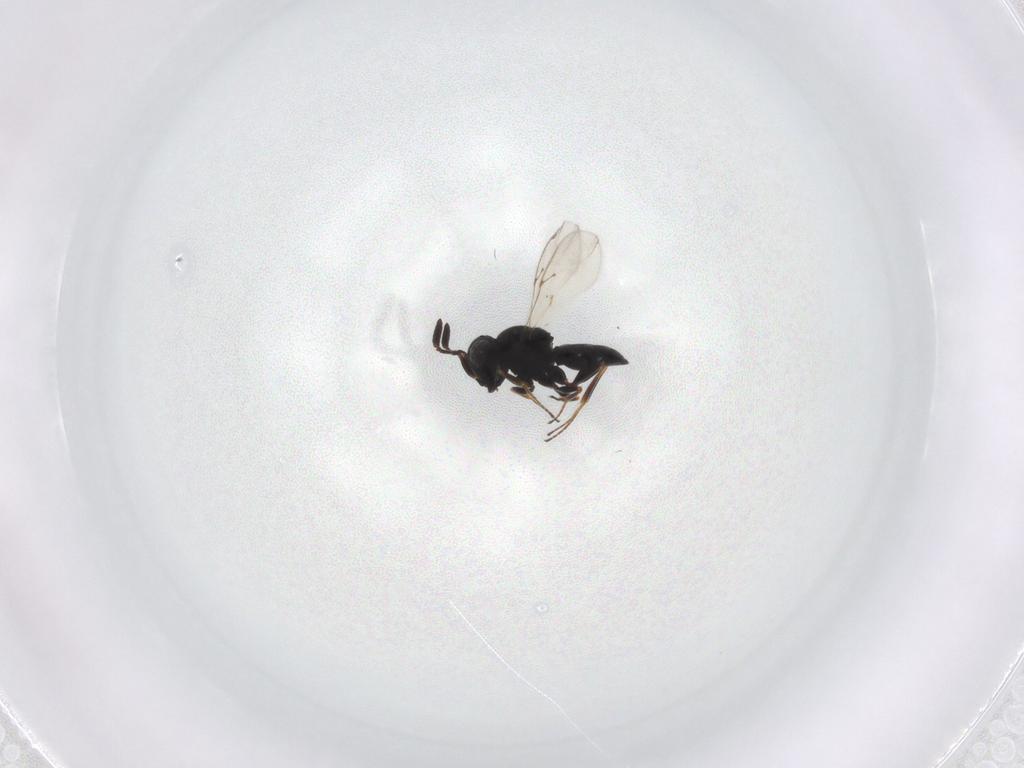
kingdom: Animalia
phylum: Arthropoda
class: Insecta
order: Hymenoptera
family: Scelionidae
